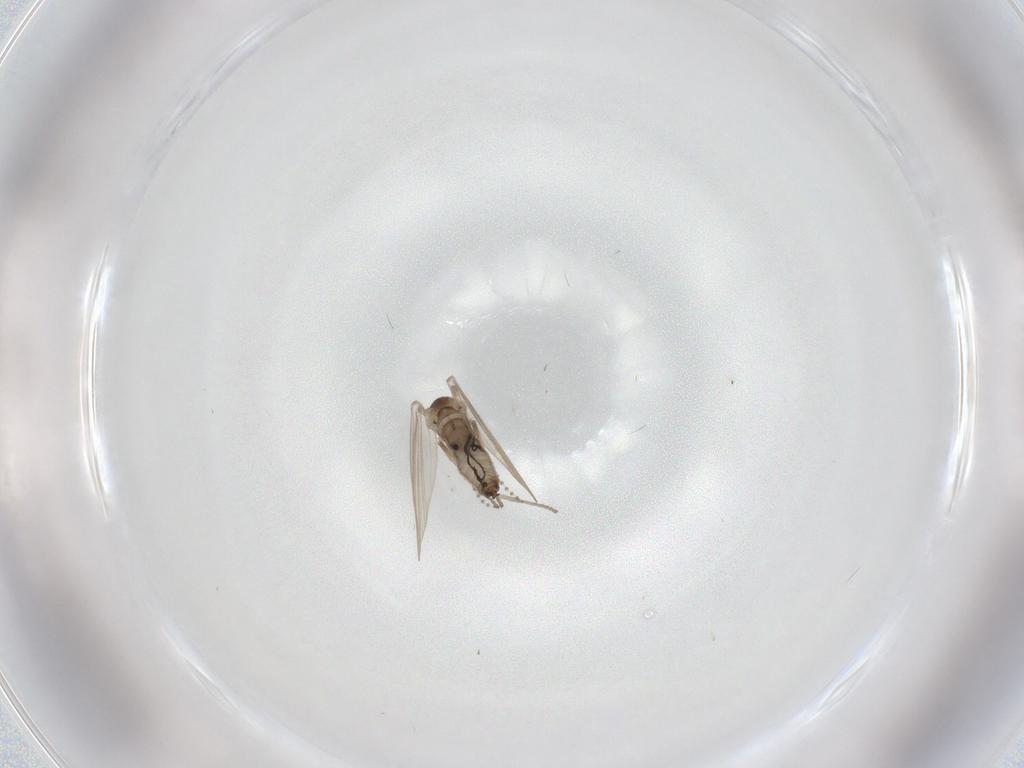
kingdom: Animalia
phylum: Arthropoda
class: Insecta
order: Diptera
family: Psychodidae
